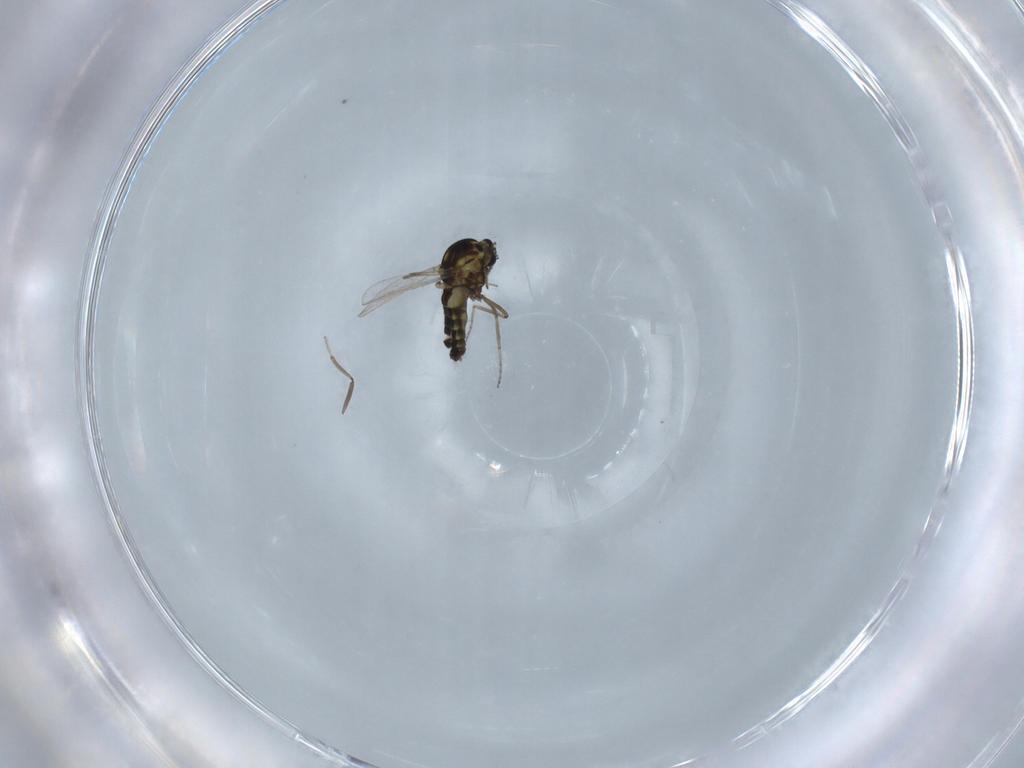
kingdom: Animalia
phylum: Arthropoda
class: Insecta
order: Diptera
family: Ceratopogonidae
